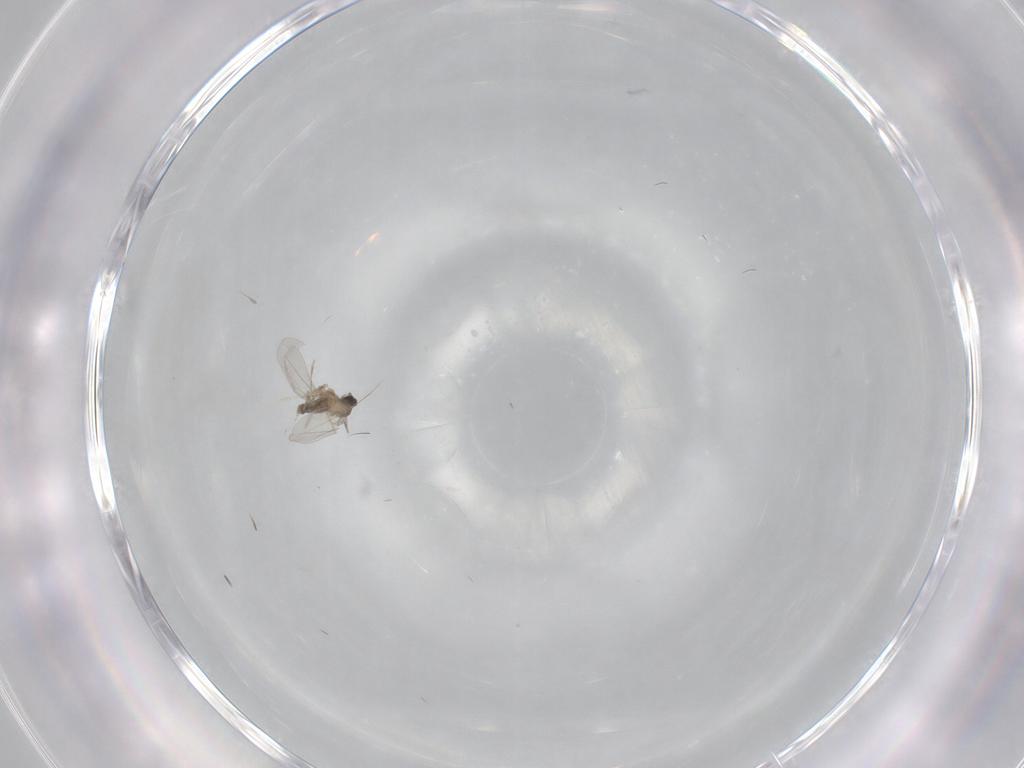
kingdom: Animalia
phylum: Arthropoda
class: Insecta
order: Diptera
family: Cecidomyiidae
